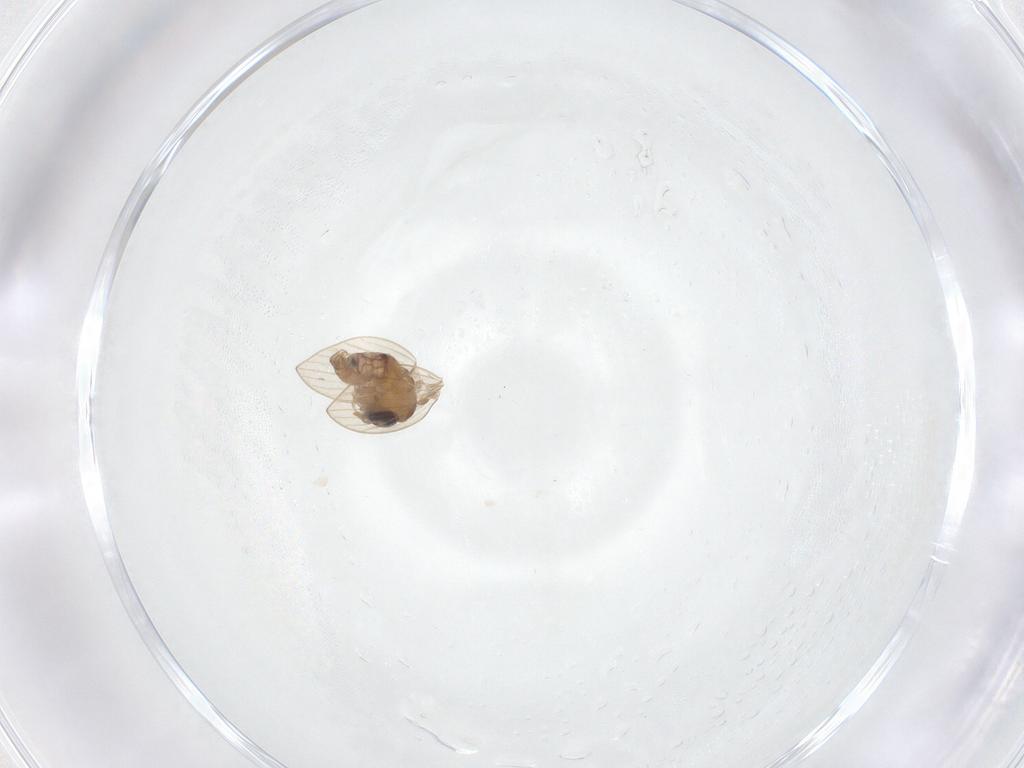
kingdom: Animalia
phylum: Arthropoda
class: Insecta
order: Diptera
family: Psychodidae
